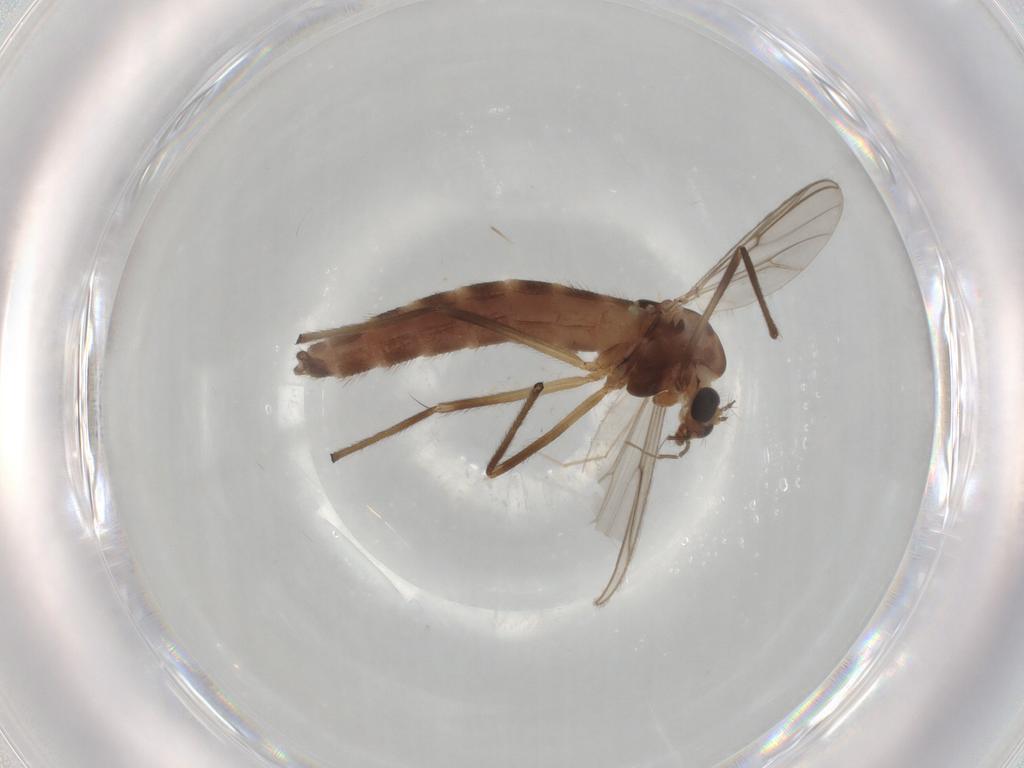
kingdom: Animalia
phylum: Arthropoda
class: Insecta
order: Diptera
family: Chironomidae
